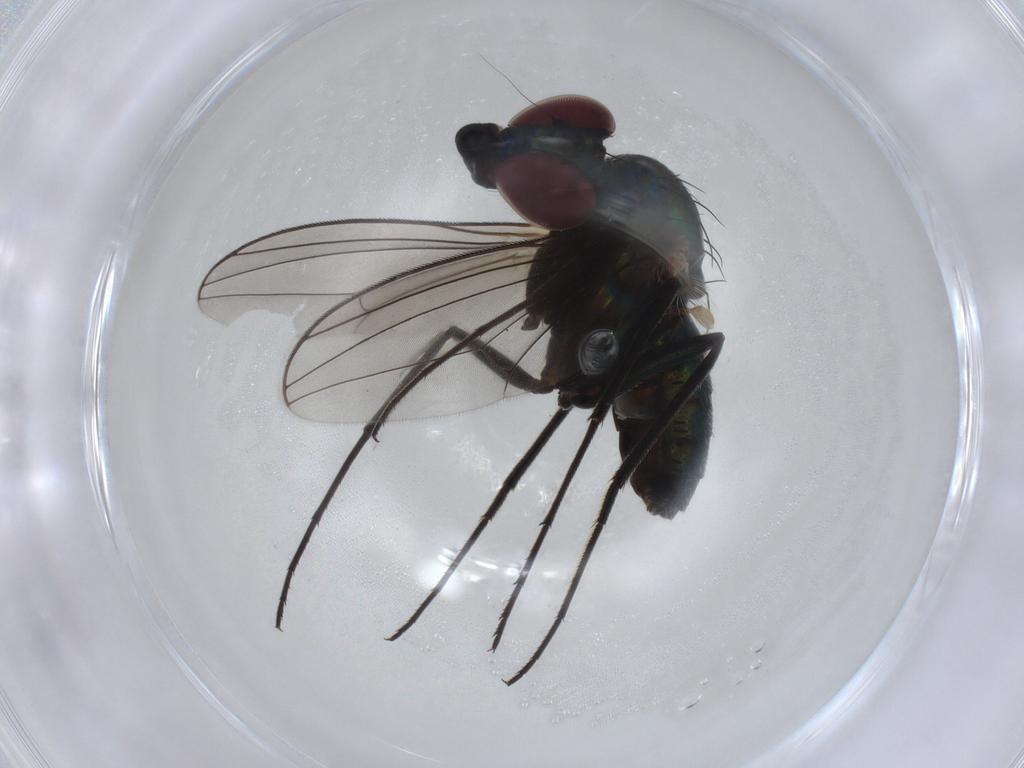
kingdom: Animalia
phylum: Arthropoda
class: Insecta
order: Diptera
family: Dolichopodidae
